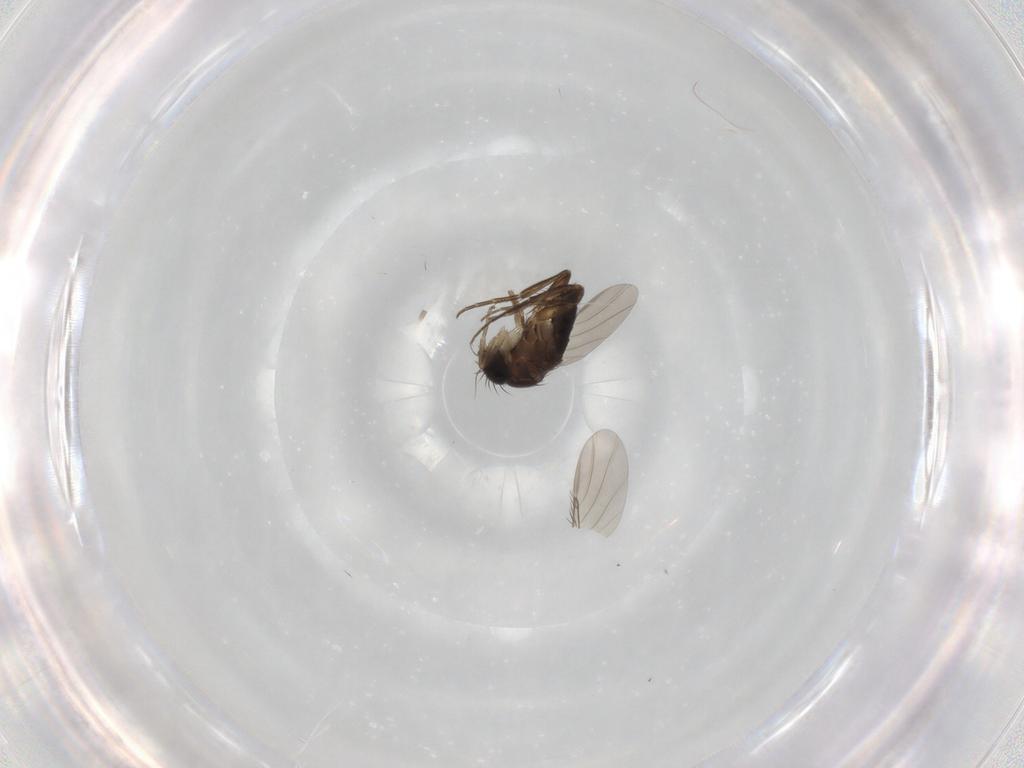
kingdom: Animalia
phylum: Arthropoda
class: Insecta
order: Diptera
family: Phoridae
